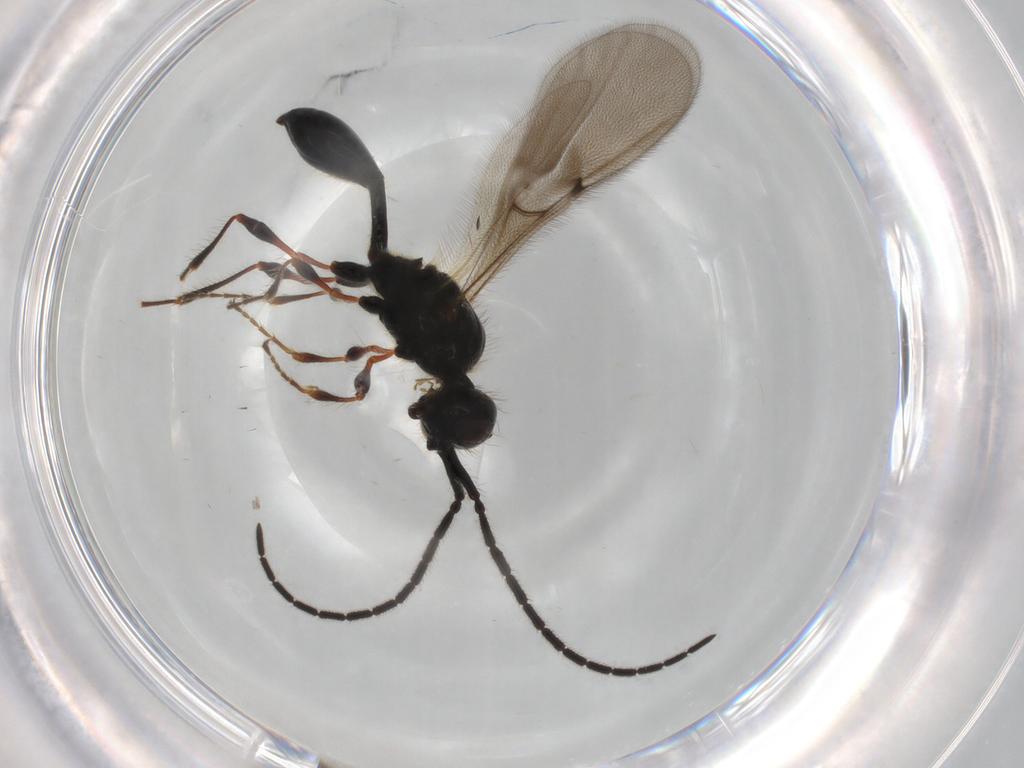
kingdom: Animalia
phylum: Arthropoda
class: Insecta
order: Hymenoptera
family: Diapriidae
